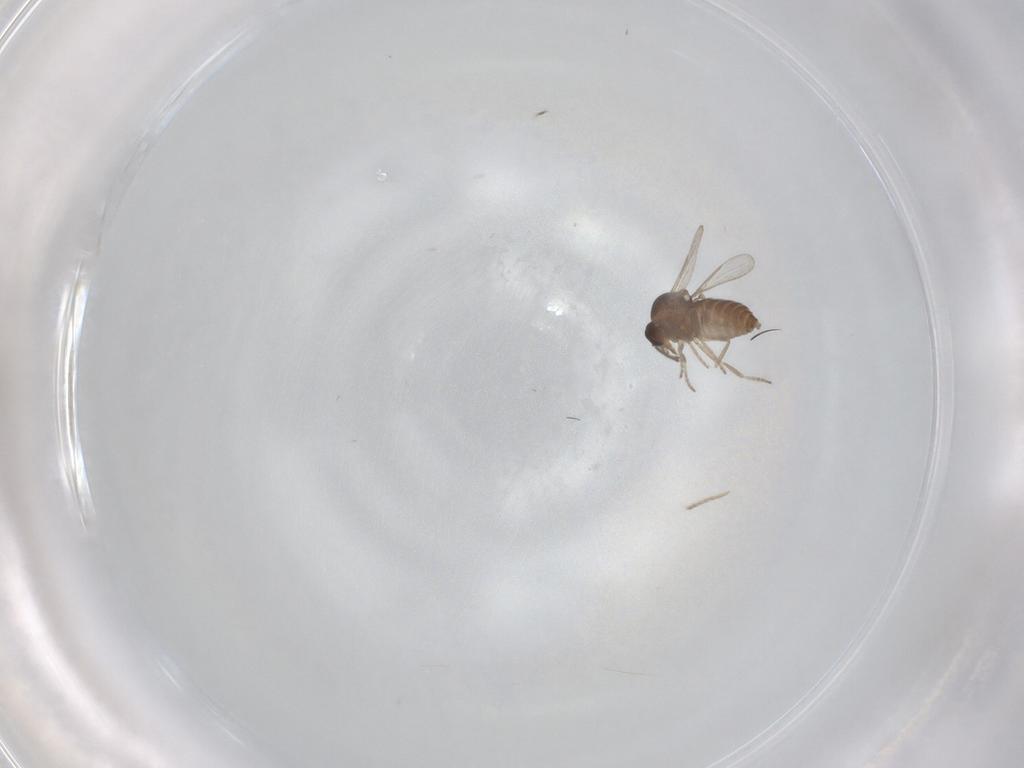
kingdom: Animalia
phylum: Arthropoda
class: Insecta
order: Diptera
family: Ceratopogonidae
